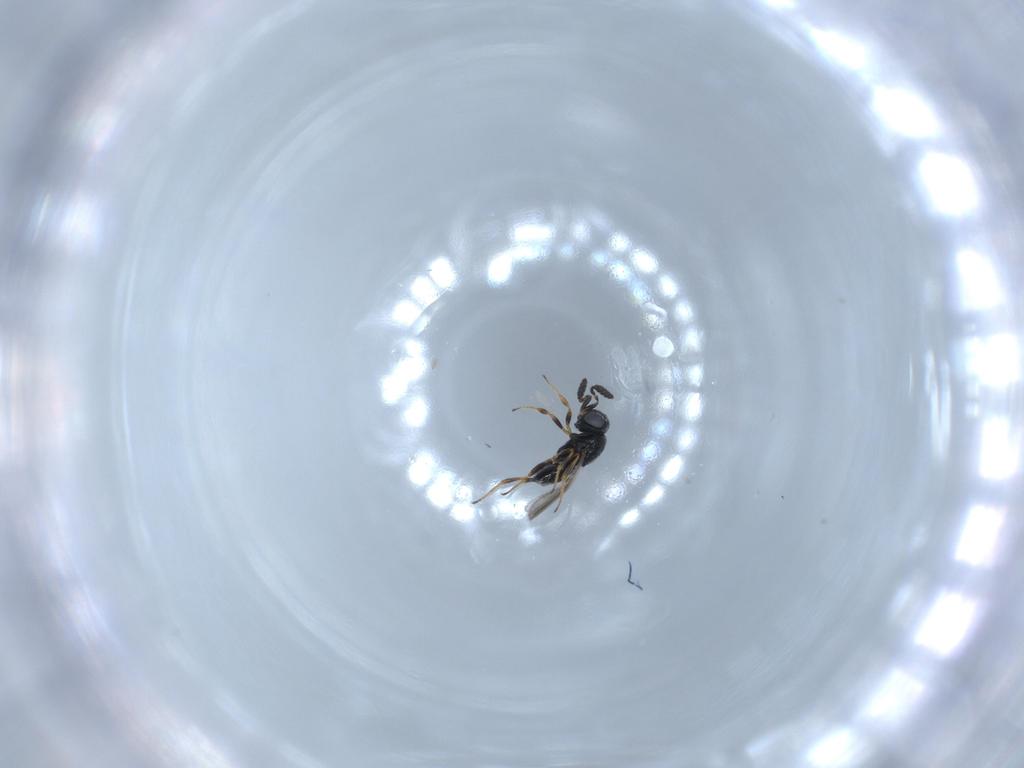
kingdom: Animalia
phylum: Arthropoda
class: Insecta
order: Hymenoptera
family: Scelionidae
